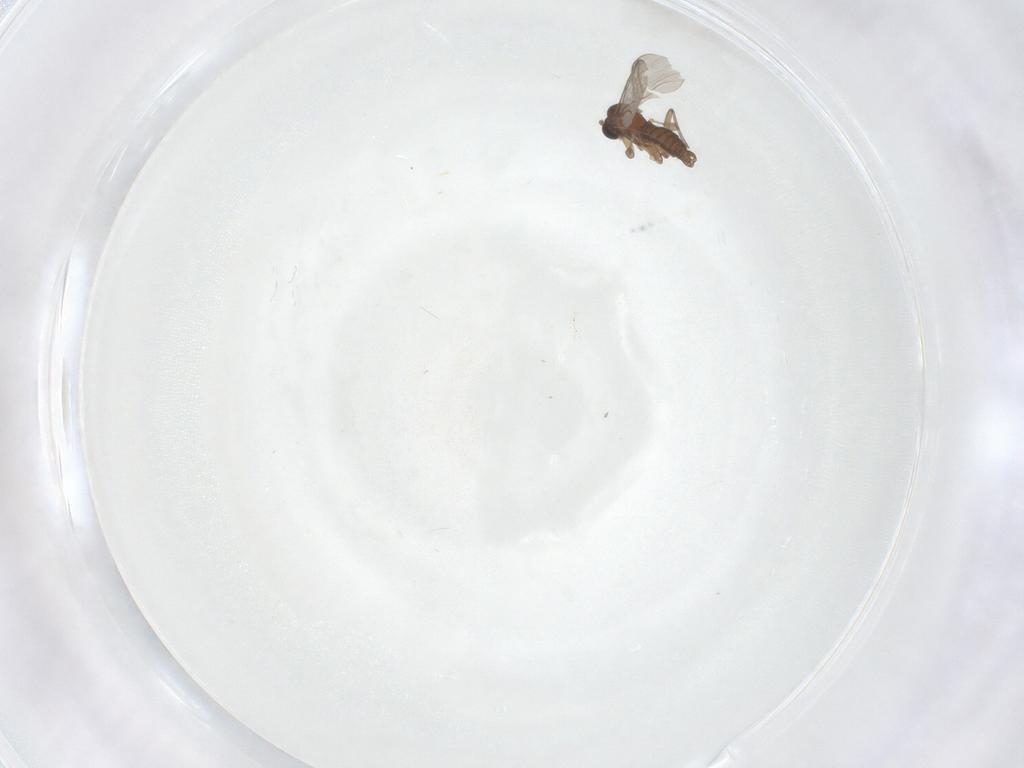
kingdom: Animalia
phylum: Arthropoda
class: Insecta
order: Diptera
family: Sciaridae
